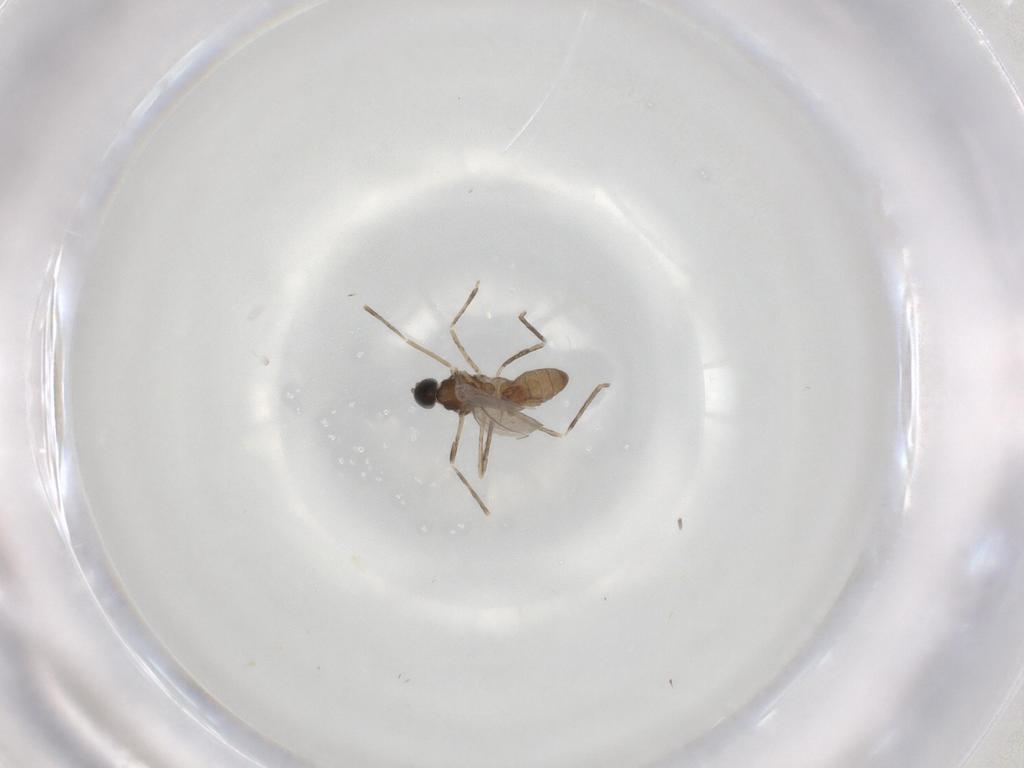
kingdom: Animalia
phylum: Arthropoda
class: Insecta
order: Diptera
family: Cecidomyiidae
